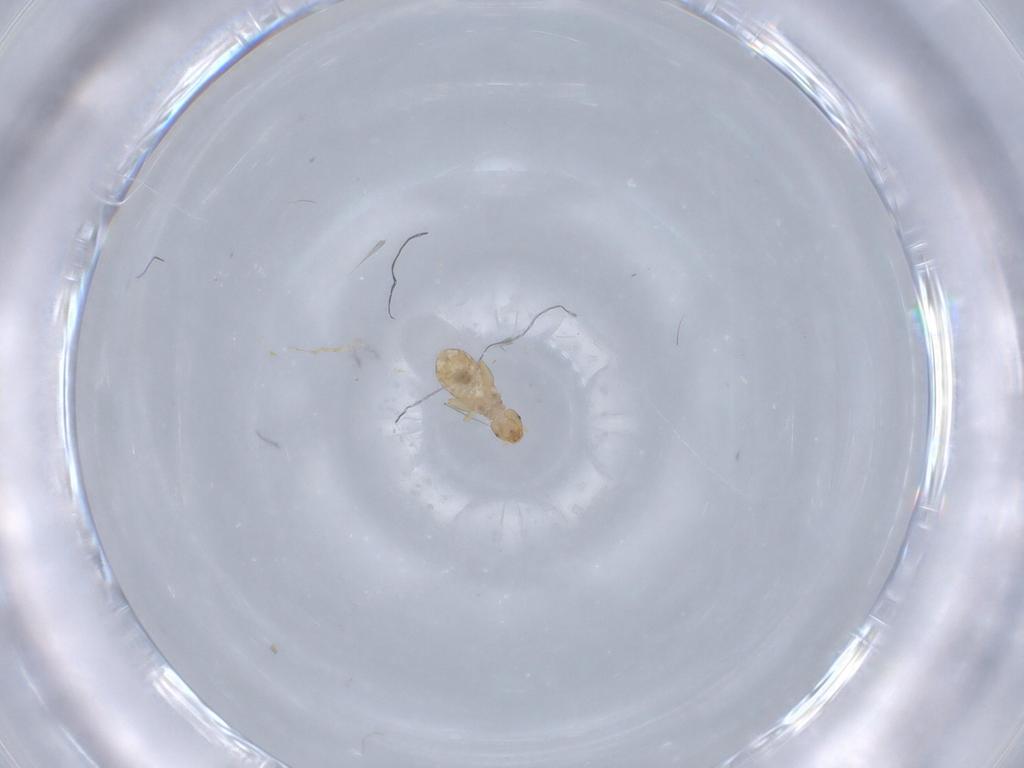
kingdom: Animalia
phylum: Arthropoda
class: Insecta
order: Psocodea
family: Liposcelididae
